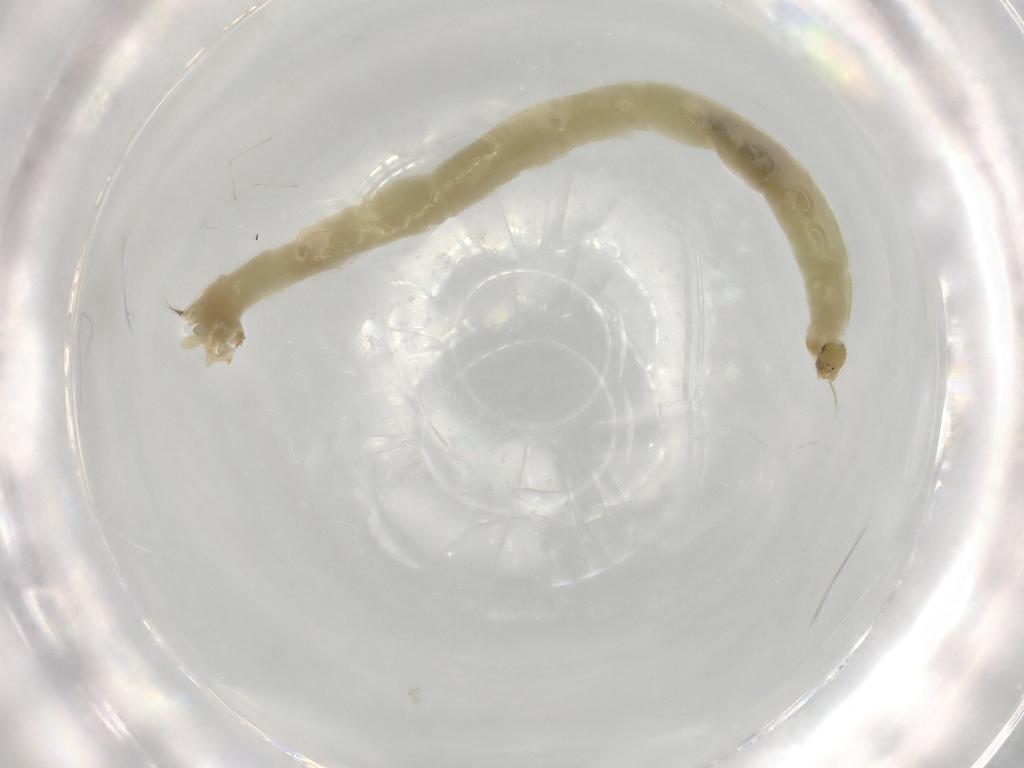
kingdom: Animalia
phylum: Arthropoda
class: Insecta
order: Diptera
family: Chironomidae
